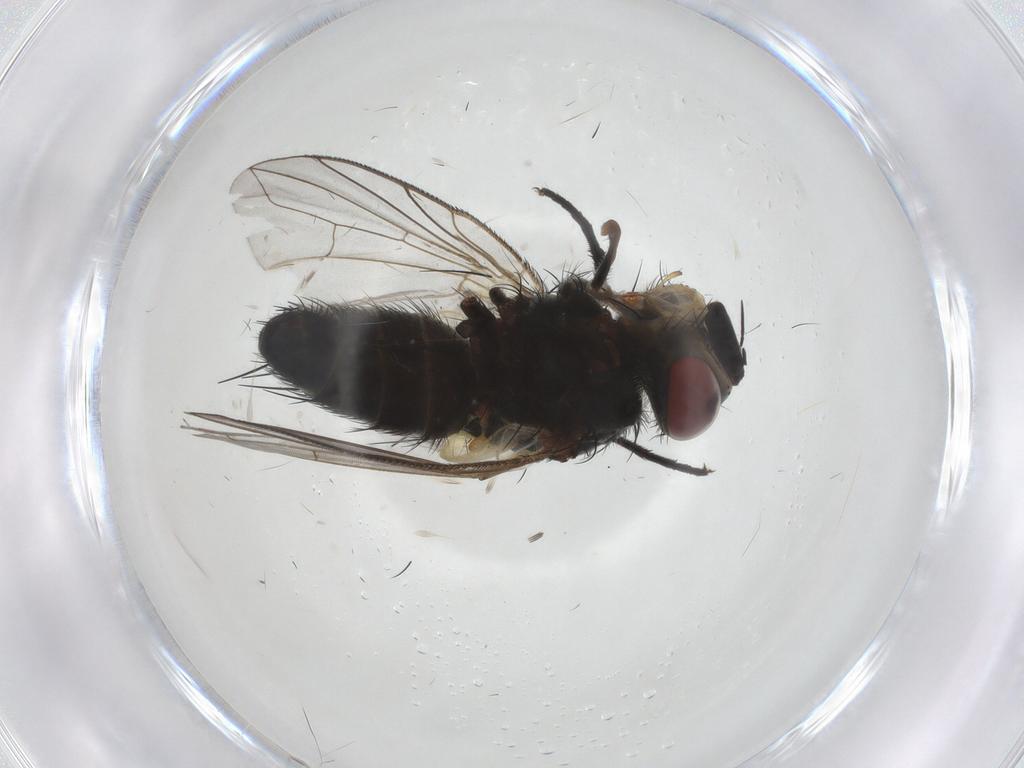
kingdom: Animalia
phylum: Arthropoda
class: Insecta
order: Diptera
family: Tachinidae
